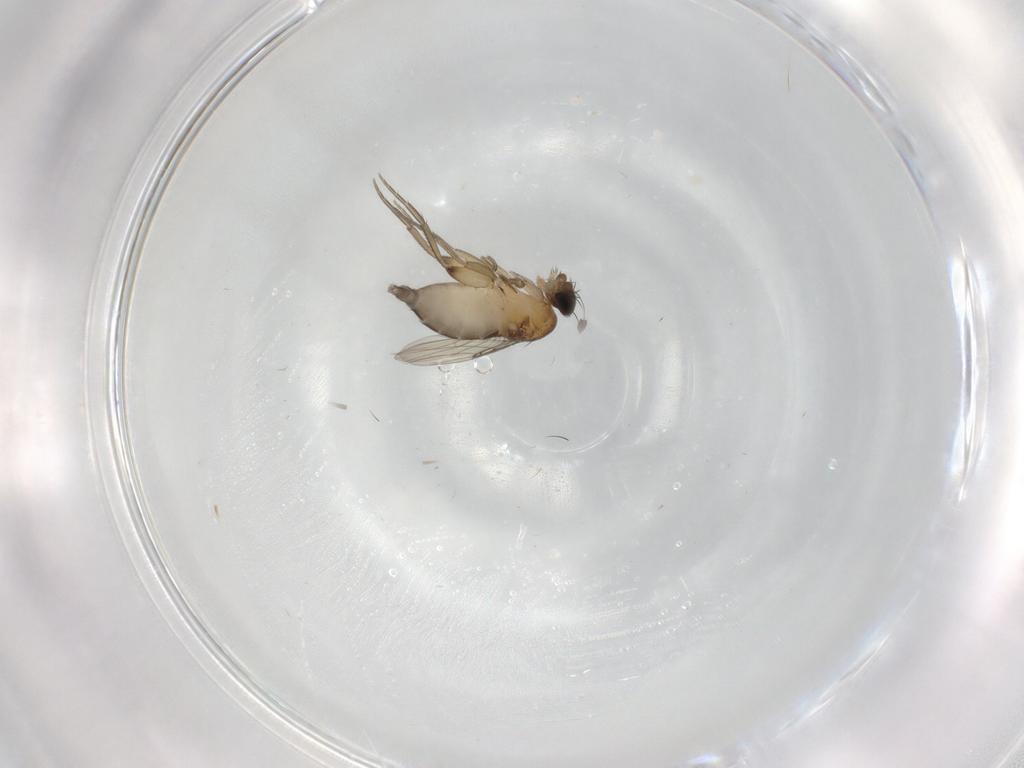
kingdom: Animalia
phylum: Arthropoda
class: Insecta
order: Diptera
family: Phoridae
